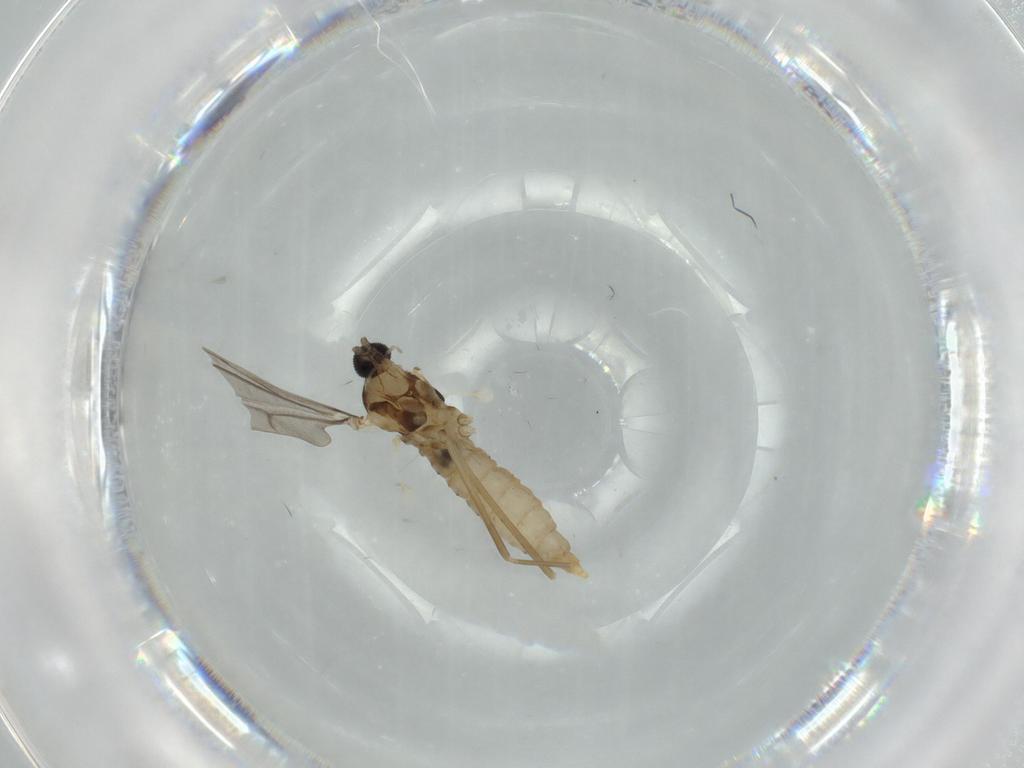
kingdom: Animalia
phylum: Arthropoda
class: Insecta
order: Diptera
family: Cecidomyiidae
